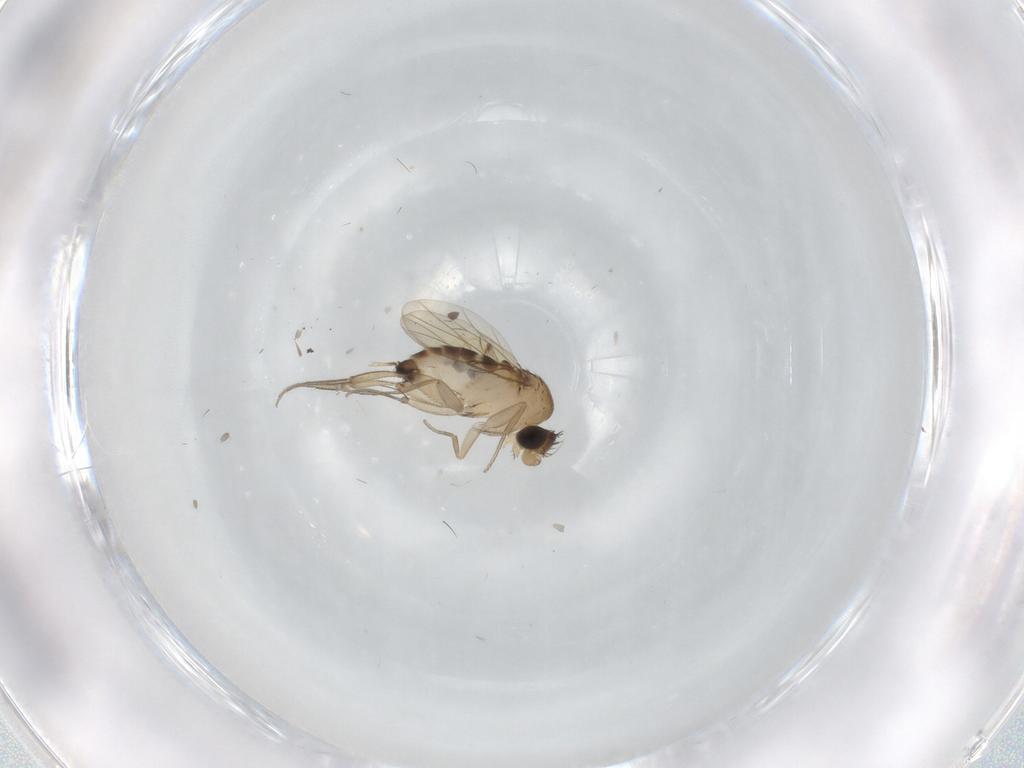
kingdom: Animalia
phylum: Arthropoda
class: Insecta
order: Diptera
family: Phoridae
